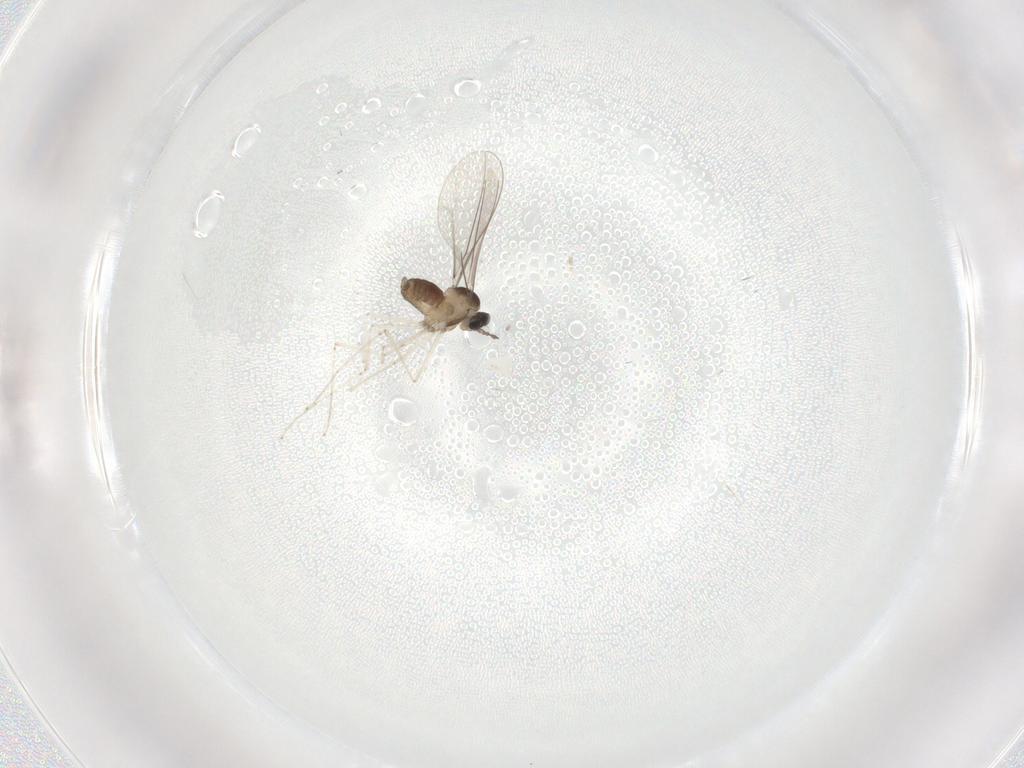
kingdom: Animalia
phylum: Arthropoda
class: Insecta
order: Diptera
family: Cecidomyiidae
